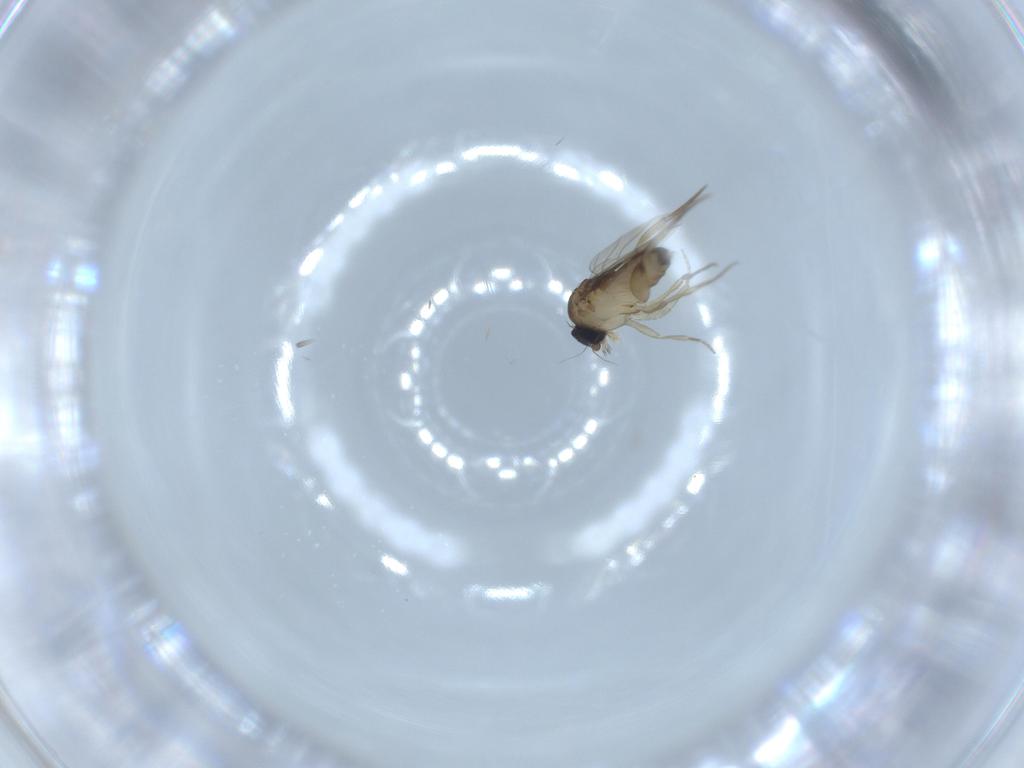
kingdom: Animalia
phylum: Arthropoda
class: Insecta
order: Diptera
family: Phoridae
